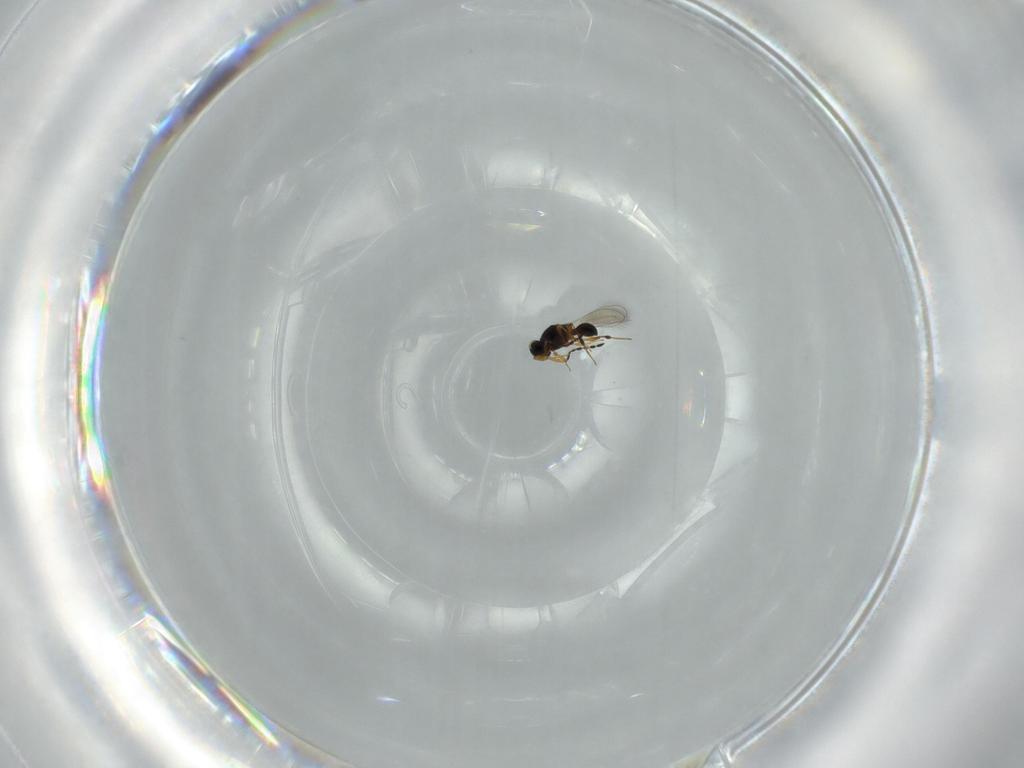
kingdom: Animalia
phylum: Arthropoda
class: Insecta
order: Hymenoptera
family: Platygastridae
